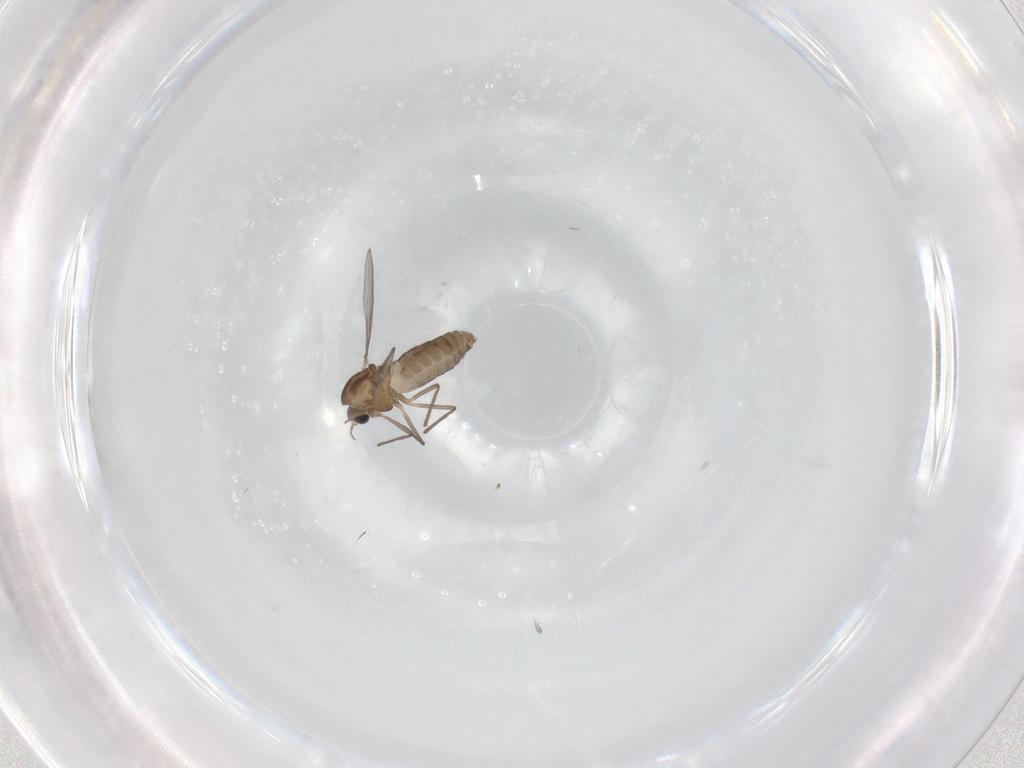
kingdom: Animalia
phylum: Arthropoda
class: Insecta
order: Diptera
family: Chironomidae
